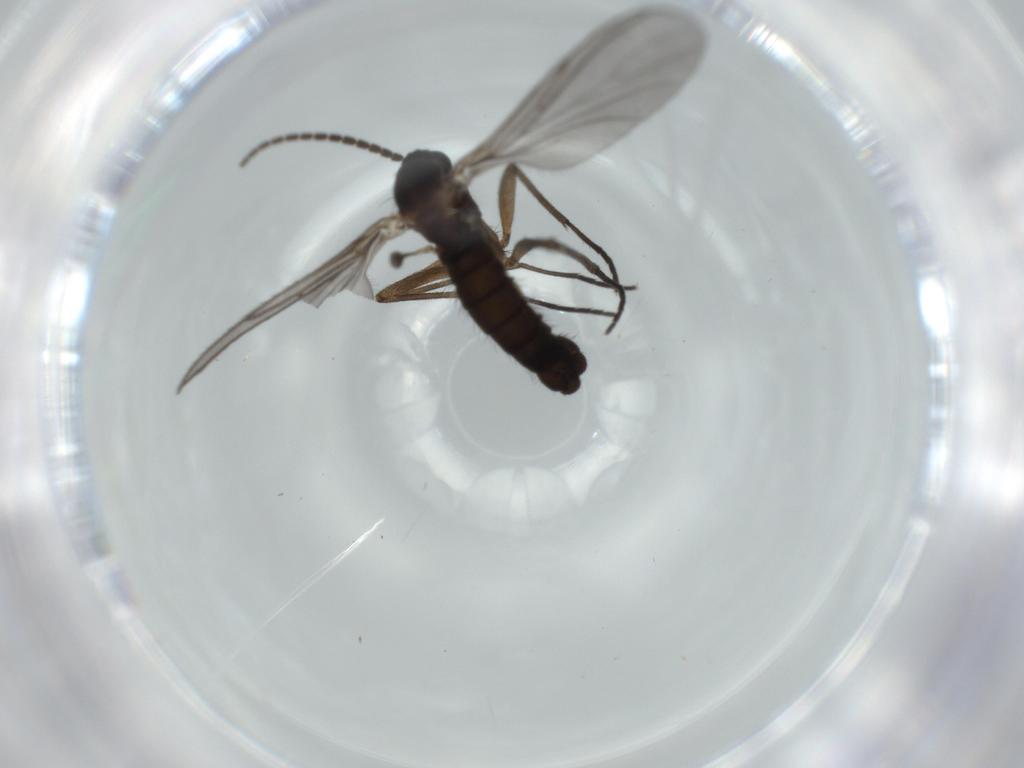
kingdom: Animalia
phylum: Arthropoda
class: Insecta
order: Diptera
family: Sciaridae
